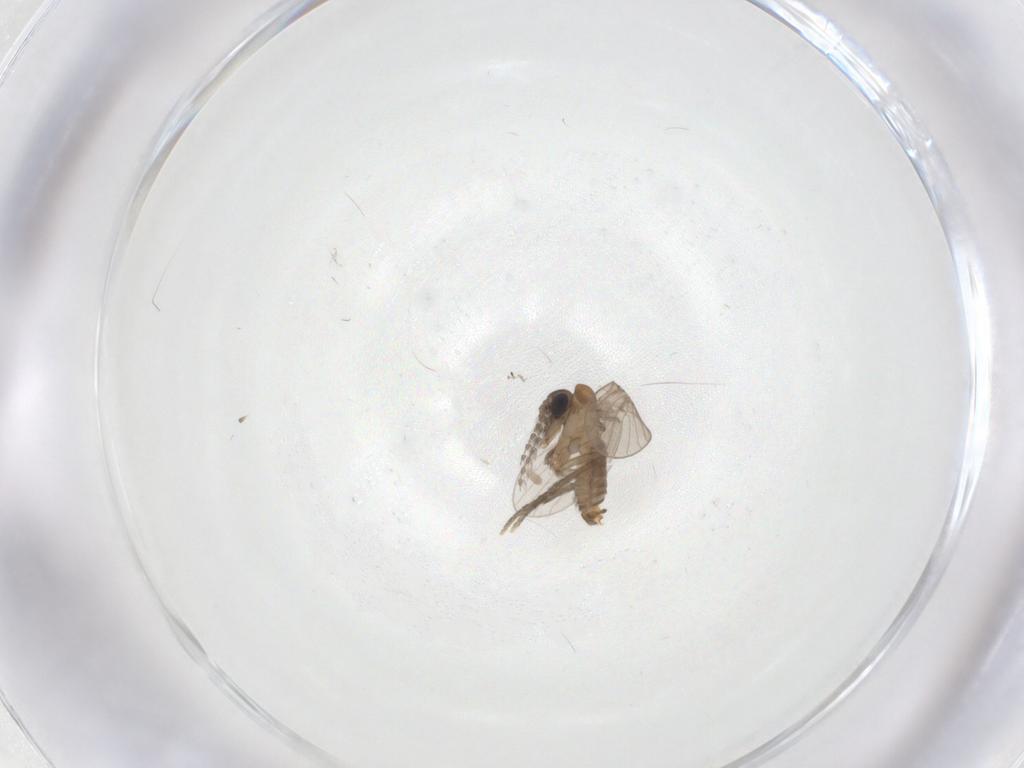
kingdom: Animalia
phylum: Arthropoda
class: Insecta
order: Diptera
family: Psychodidae
